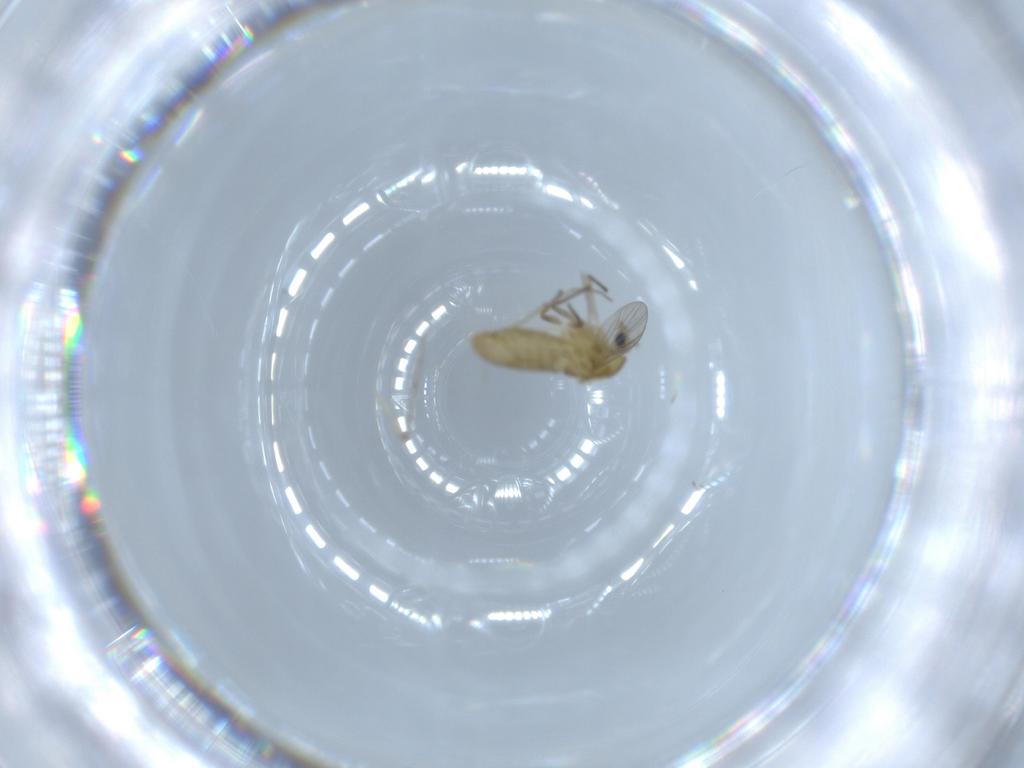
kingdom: Animalia
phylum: Arthropoda
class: Insecta
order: Diptera
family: Chironomidae
